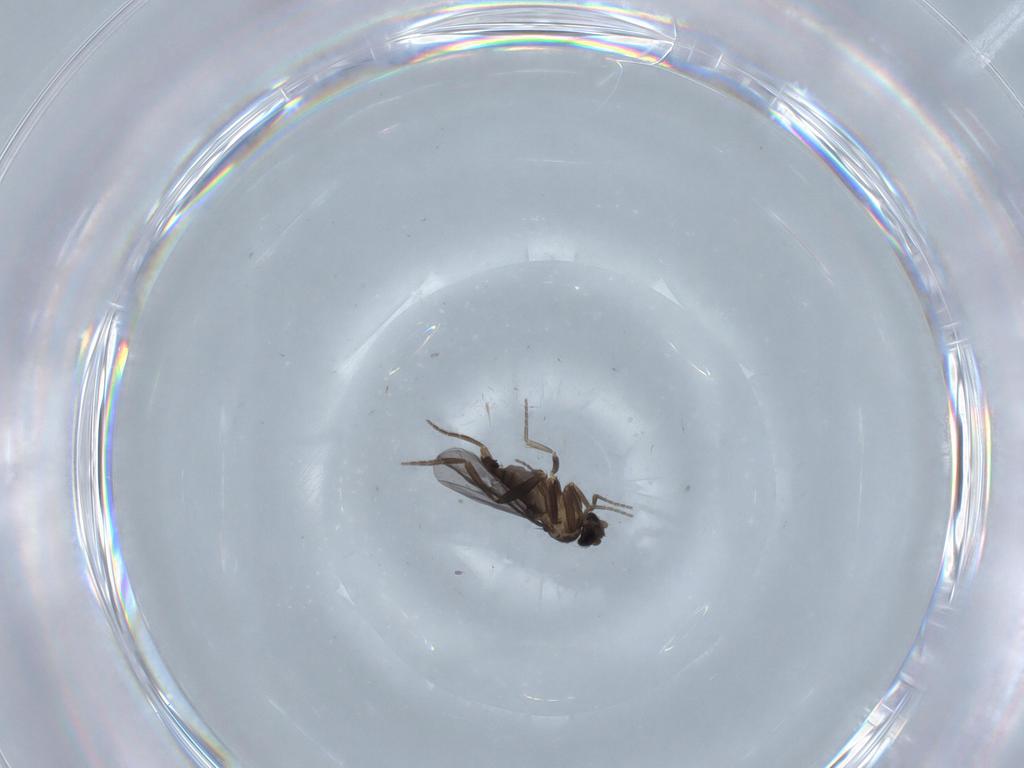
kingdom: Animalia
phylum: Arthropoda
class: Insecta
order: Diptera
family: Phoridae
